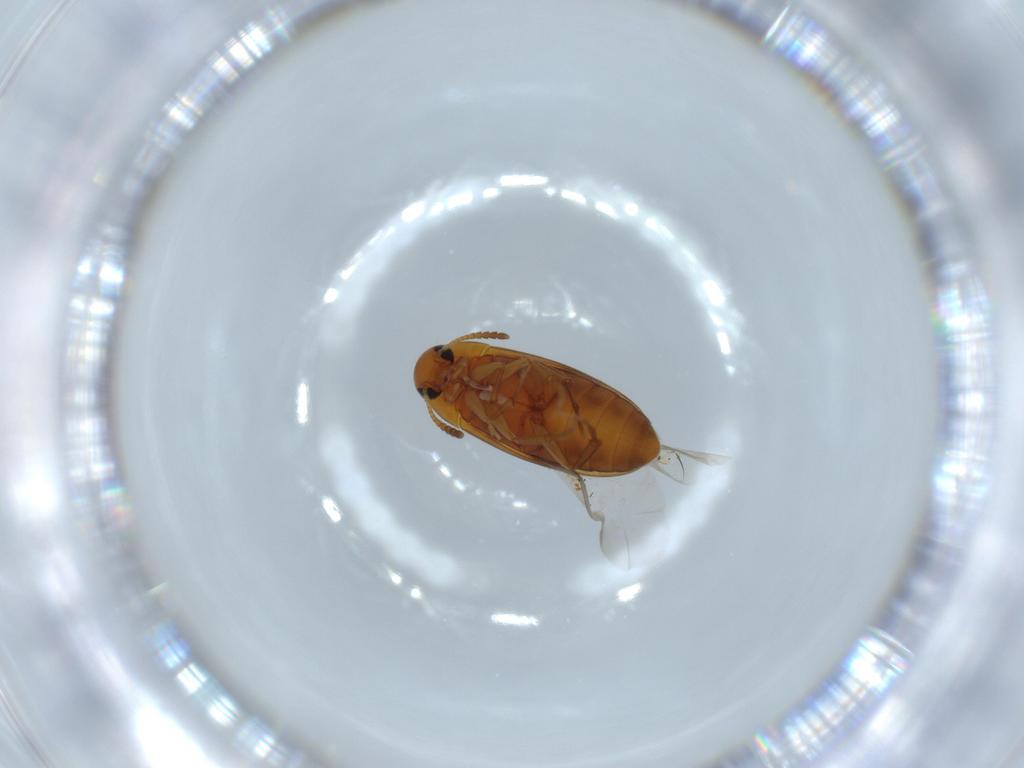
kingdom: Animalia
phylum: Arthropoda
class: Insecta
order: Coleoptera
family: Scraptiidae
